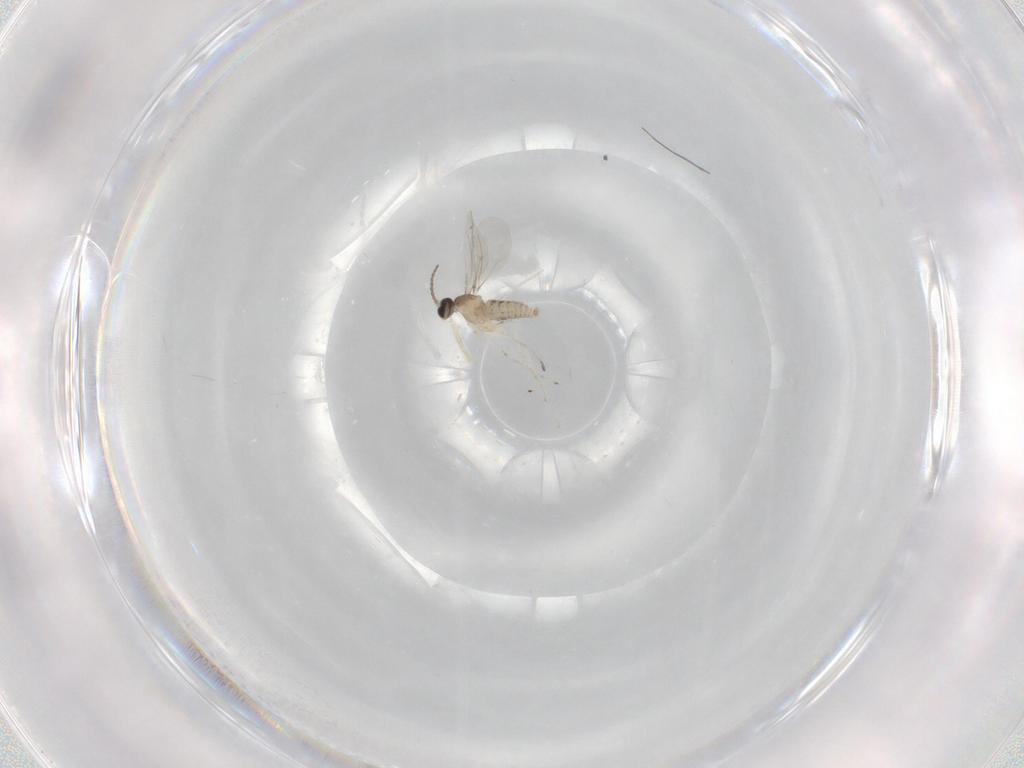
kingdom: Animalia
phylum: Arthropoda
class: Insecta
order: Diptera
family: Cecidomyiidae
